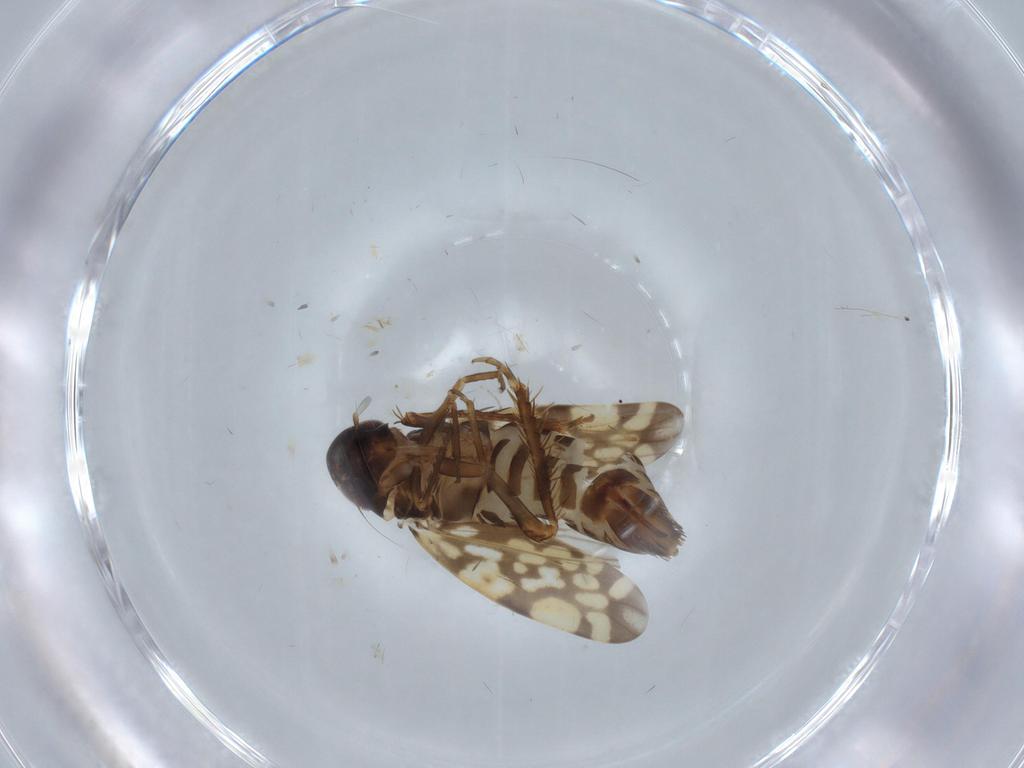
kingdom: Animalia
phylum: Arthropoda
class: Insecta
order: Hemiptera
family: Cicadellidae
